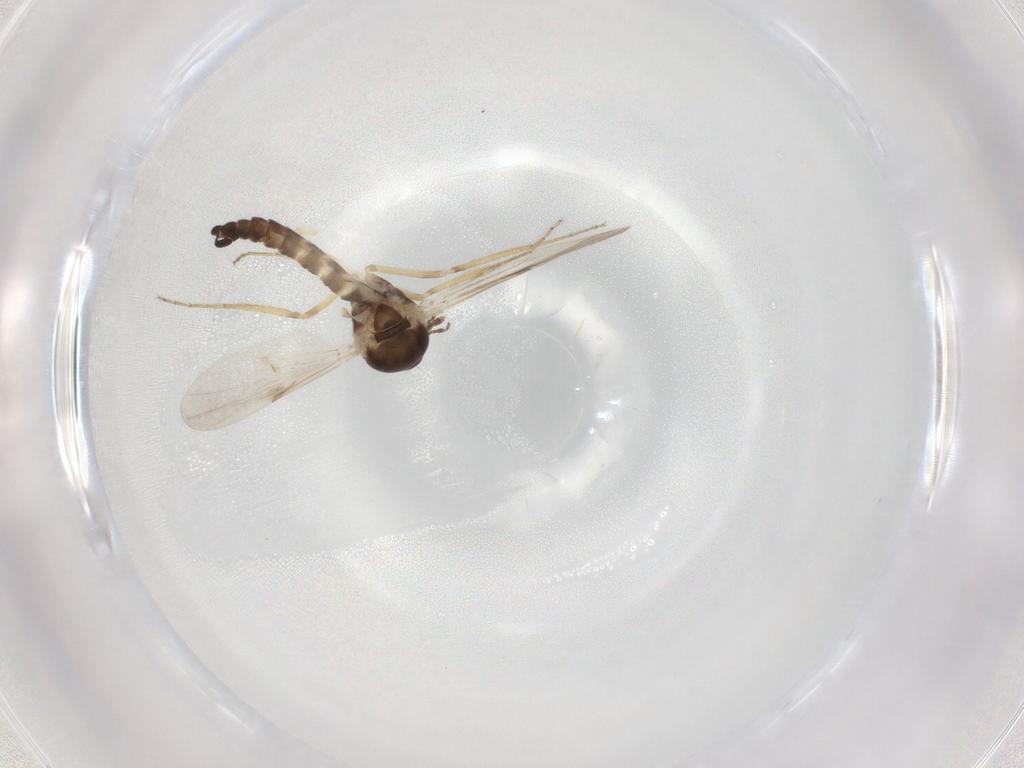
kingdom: Animalia
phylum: Arthropoda
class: Insecta
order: Diptera
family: Ceratopogonidae
